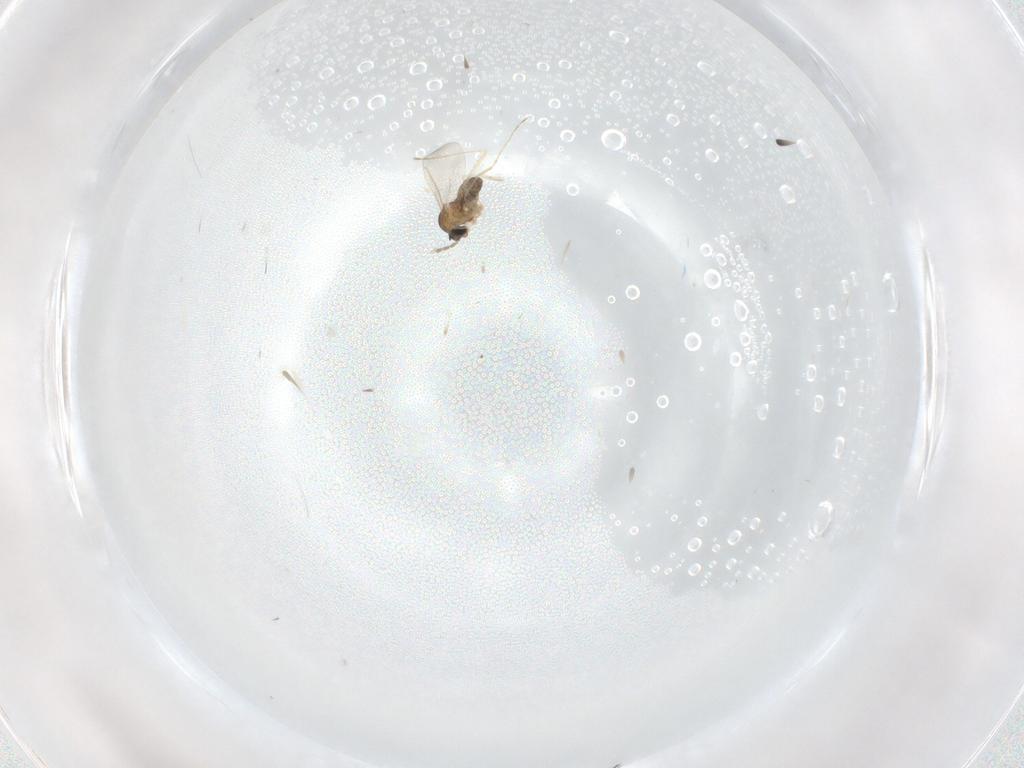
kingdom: Animalia
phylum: Arthropoda
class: Insecta
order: Diptera
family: Cecidomyiidae
